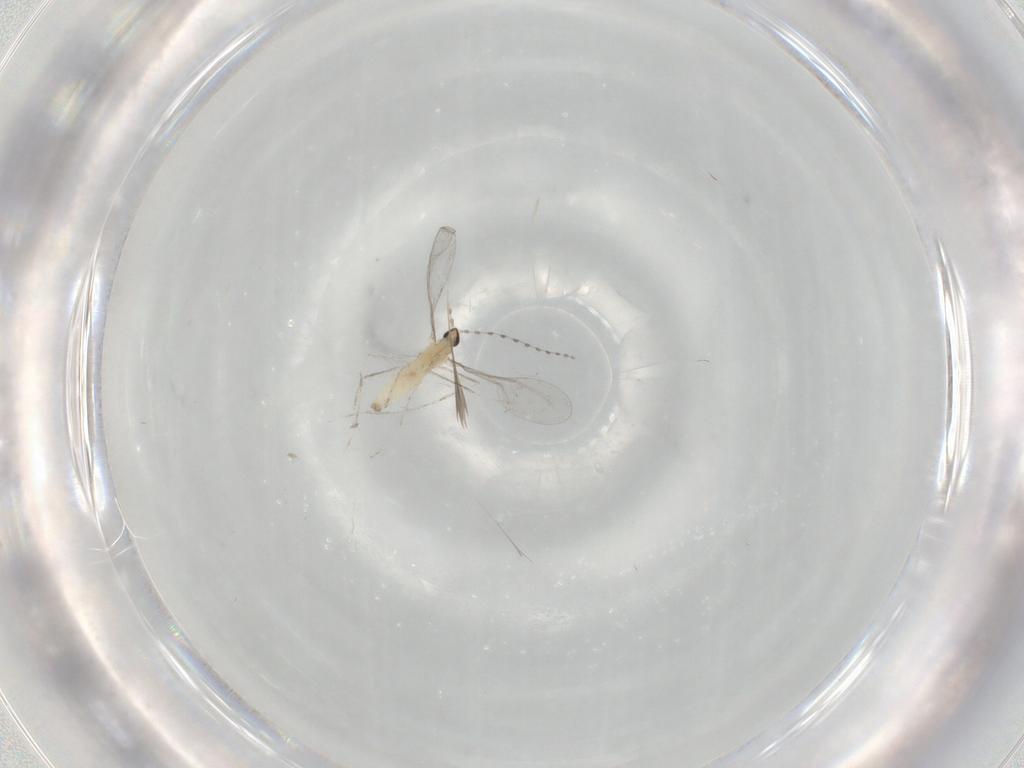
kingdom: Animalia
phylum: Arthropoda
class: Insecta
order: Diptera
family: Cecidomyiidae
